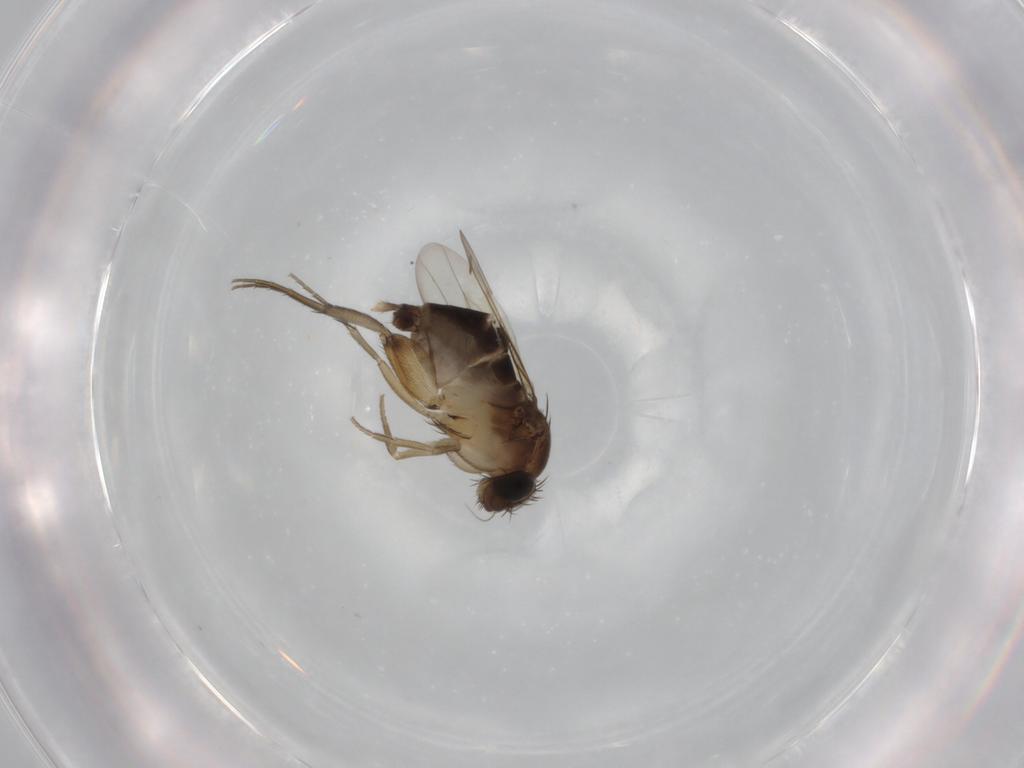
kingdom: Animalia
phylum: Arthropoda
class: Insecta
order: Diptera
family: Phoridae
